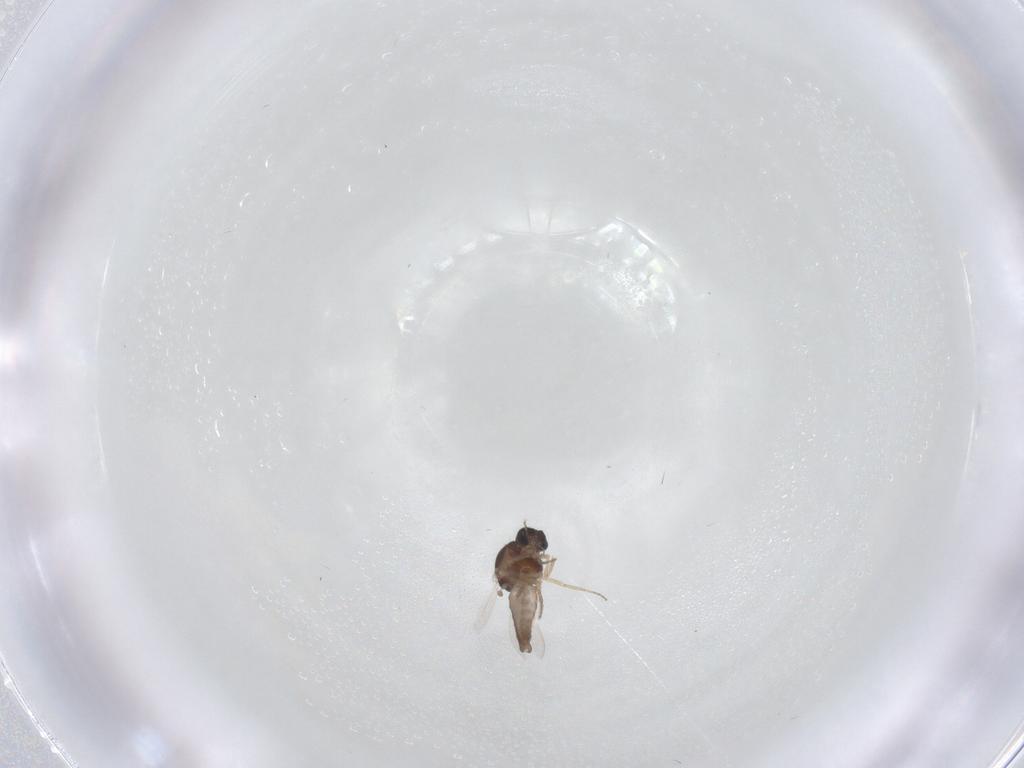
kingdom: Animalia
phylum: Arthropoda
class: Insecta
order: Diptera
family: Ceratopogonidae
